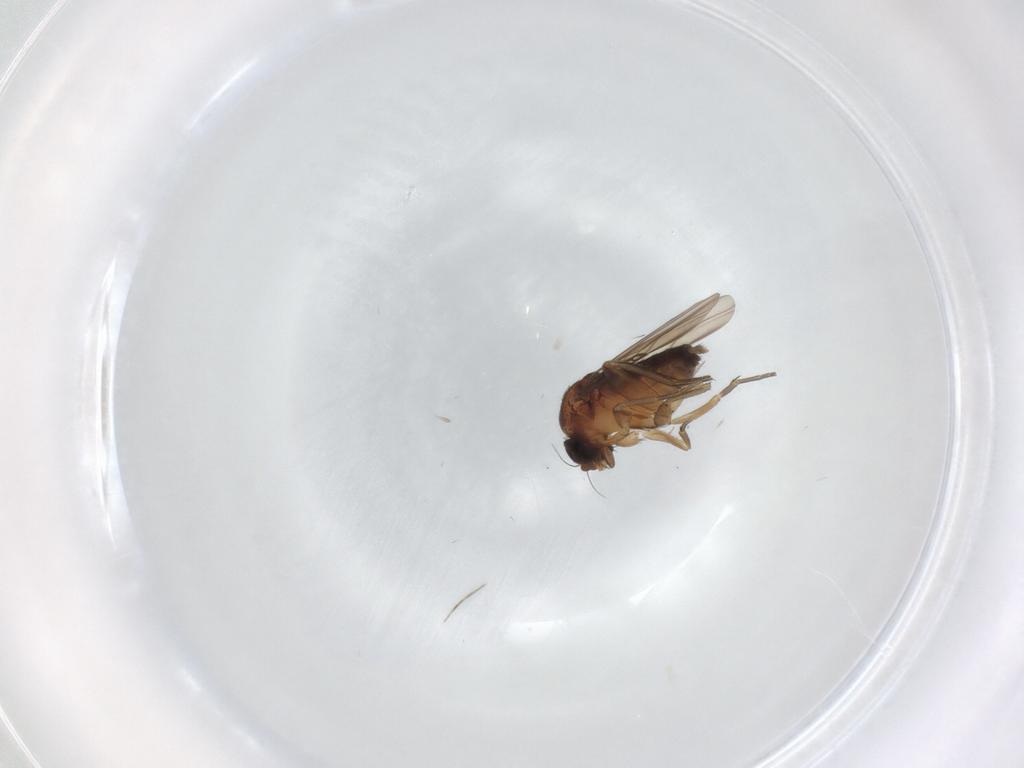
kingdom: Animalia
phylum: Arthropoda
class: Insecta
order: Diptera
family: Phoridae
